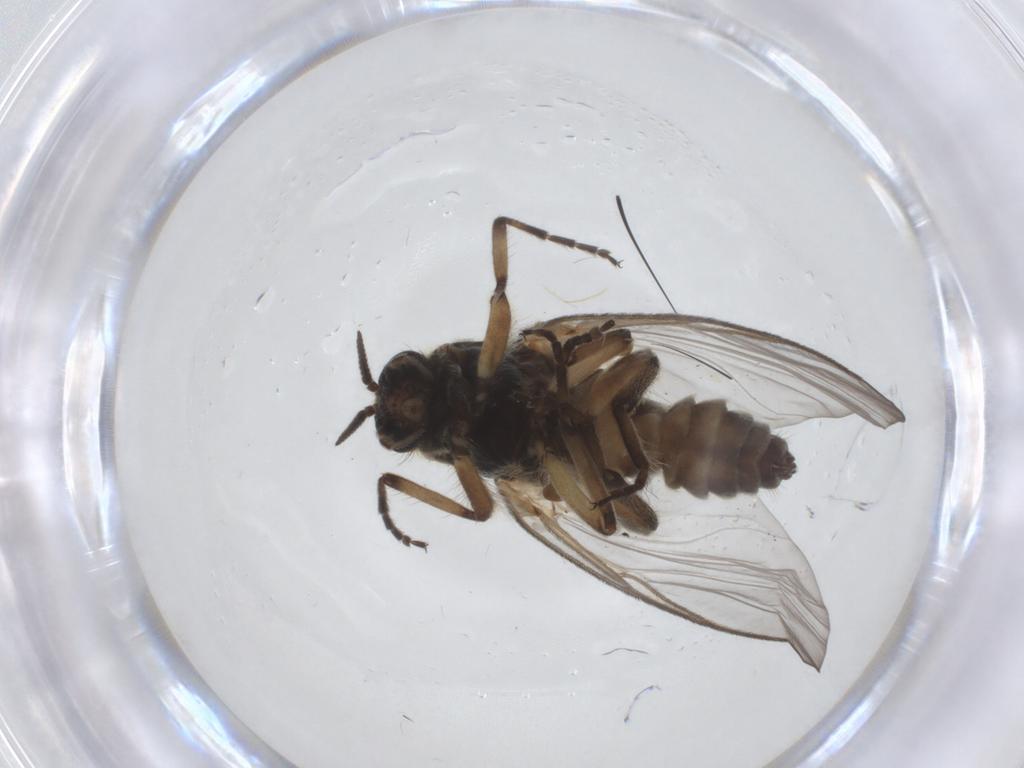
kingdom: Animalia
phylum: Arthropoda
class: Insecta
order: Diptera
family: Simuliidae
